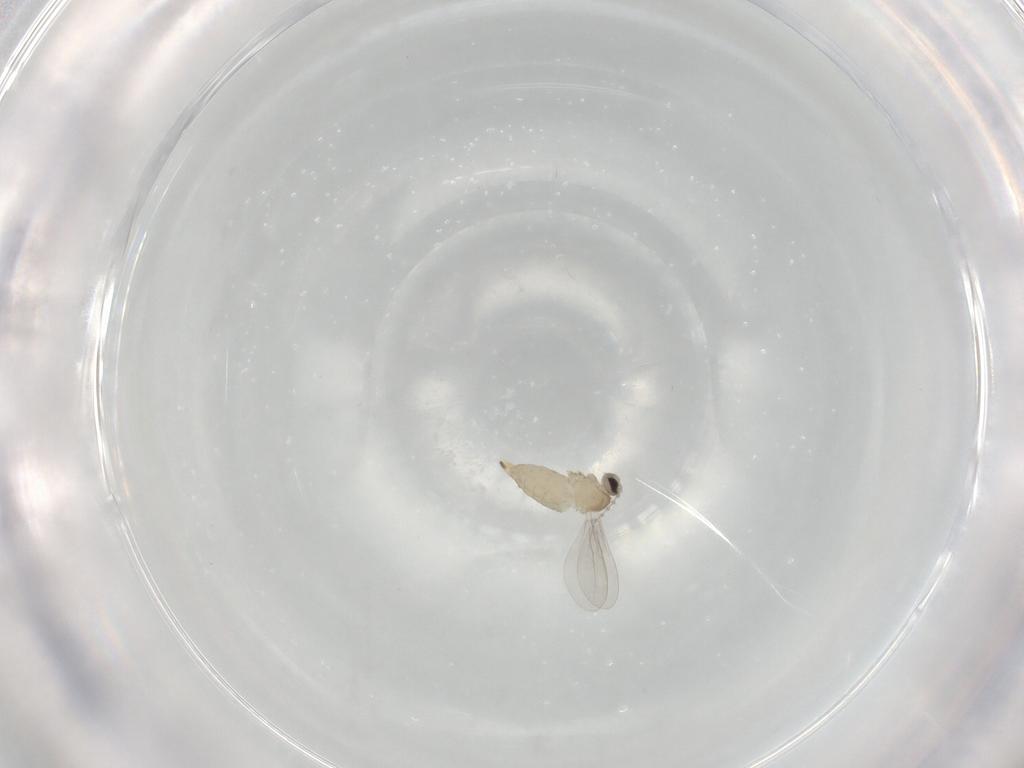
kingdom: Animalia
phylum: Arthropoda
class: Insecta
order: Diptera
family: Cecidomyiidae
